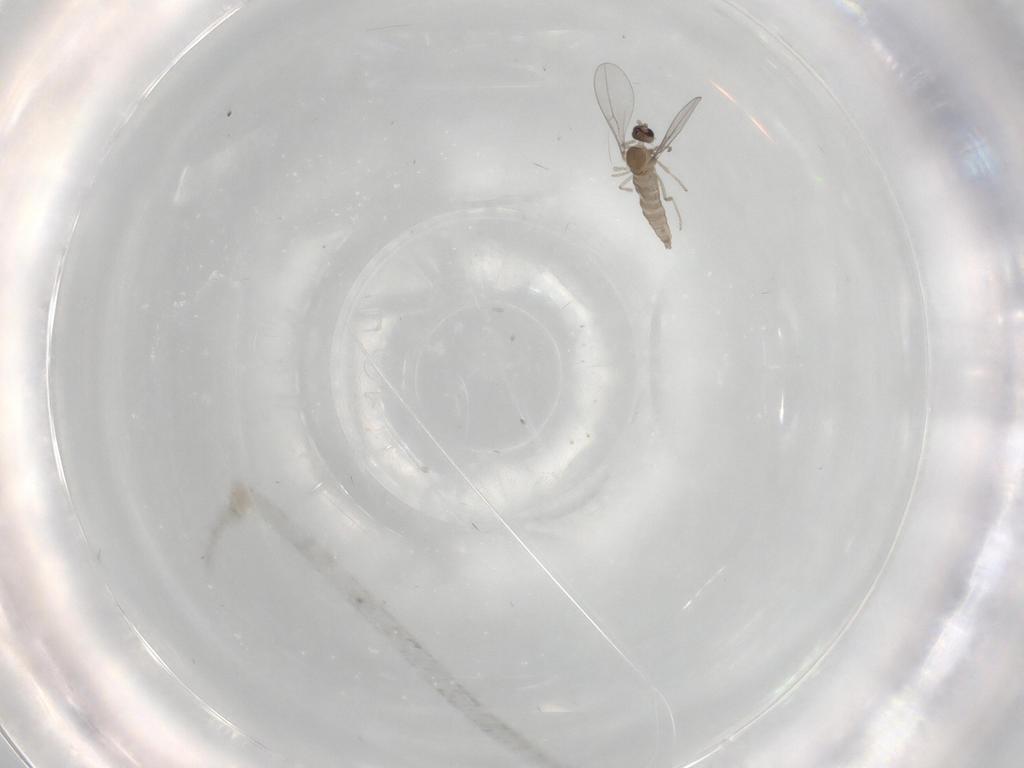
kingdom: Animalia
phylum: Arthropoda
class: Insecta
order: Diptera
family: Cecidomyiidae
